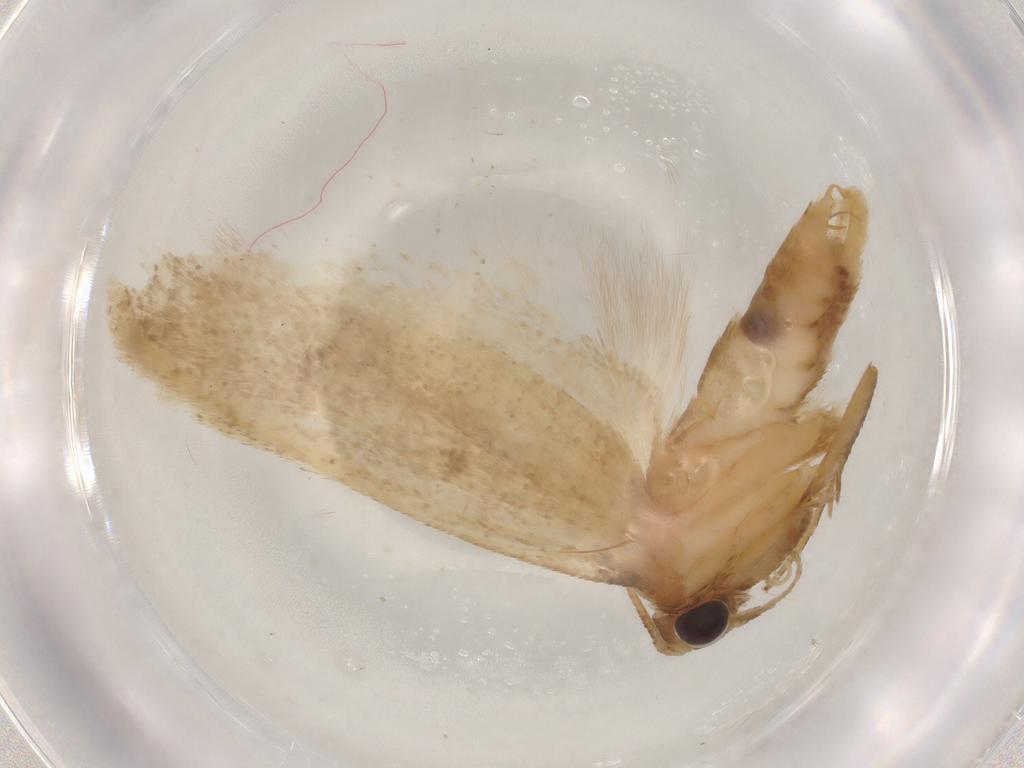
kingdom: Animalia
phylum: Arthropoda
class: Insecta
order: Lepidoptera
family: Autostichidae
